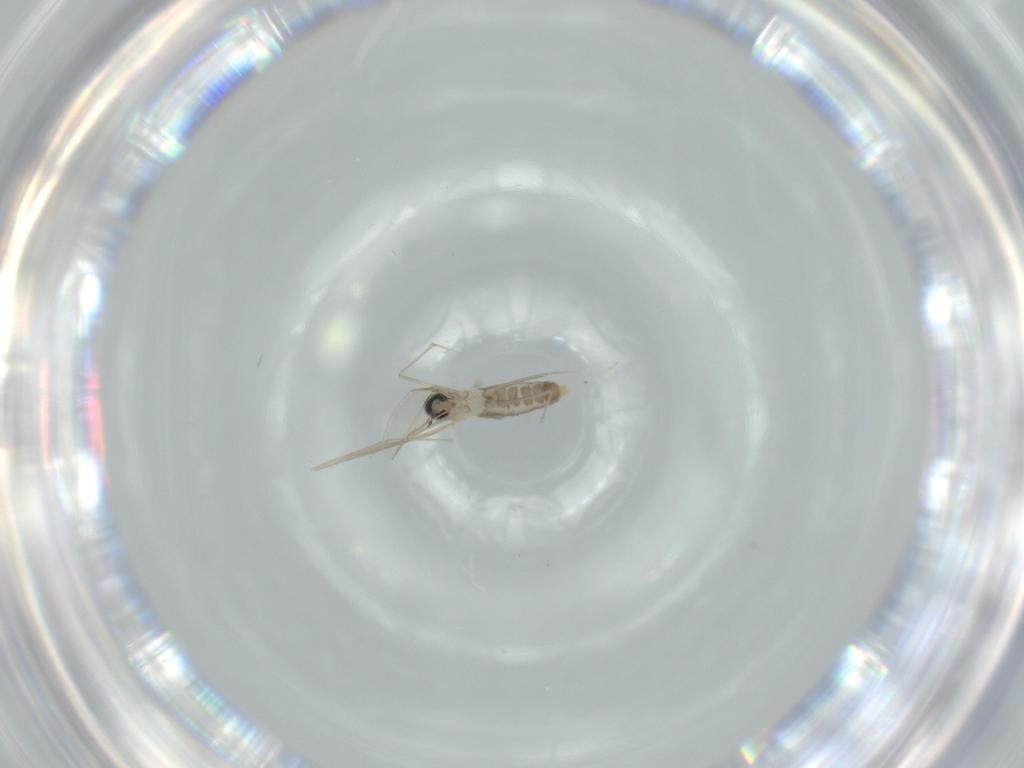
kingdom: Animalia
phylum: Arthropoda
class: Insecta
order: Diptera
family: Cecidomyiidae
